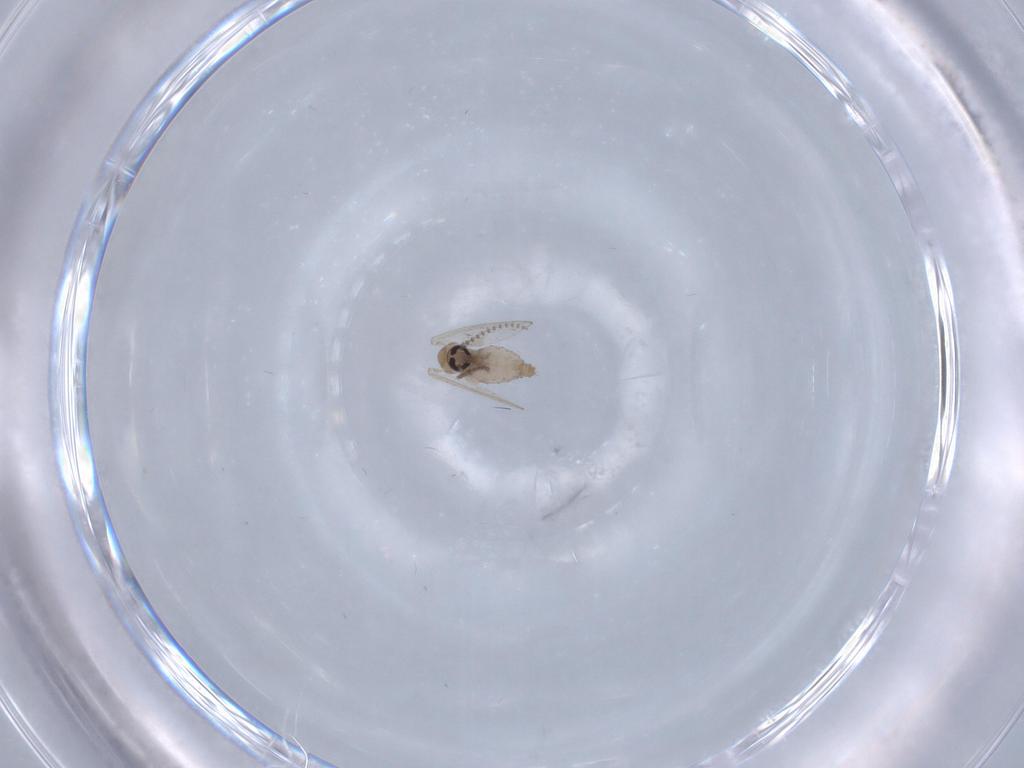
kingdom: Animalia
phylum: Arthropoda
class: Insecta
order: Diptera
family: Psychodidae
